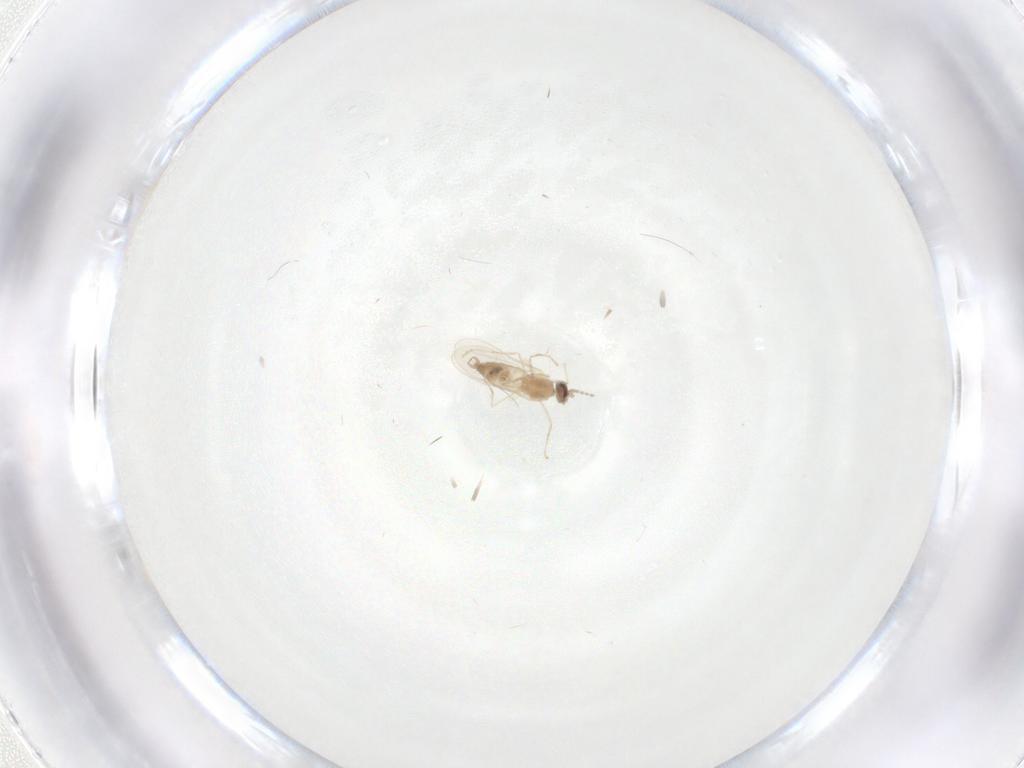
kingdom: Animalia
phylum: Arthropoda
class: Insecta
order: Diptera
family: Cecidomyiidae
